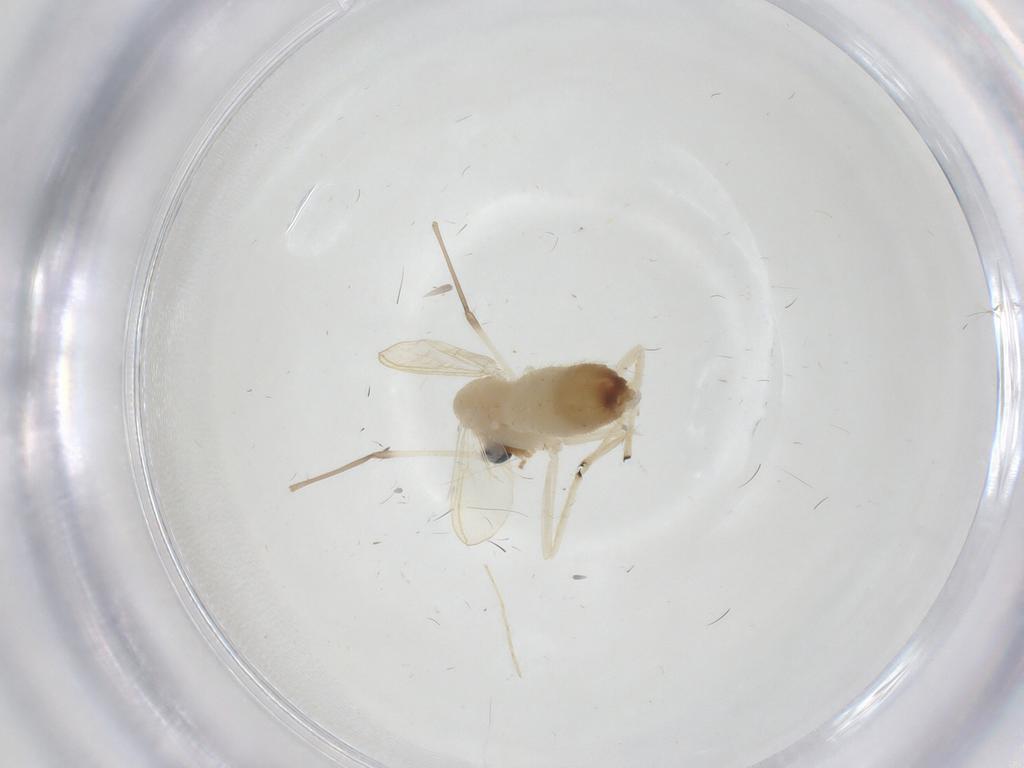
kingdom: Animalia
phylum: Arthropoda
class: Insecta
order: Diptera
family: Chironomidae
